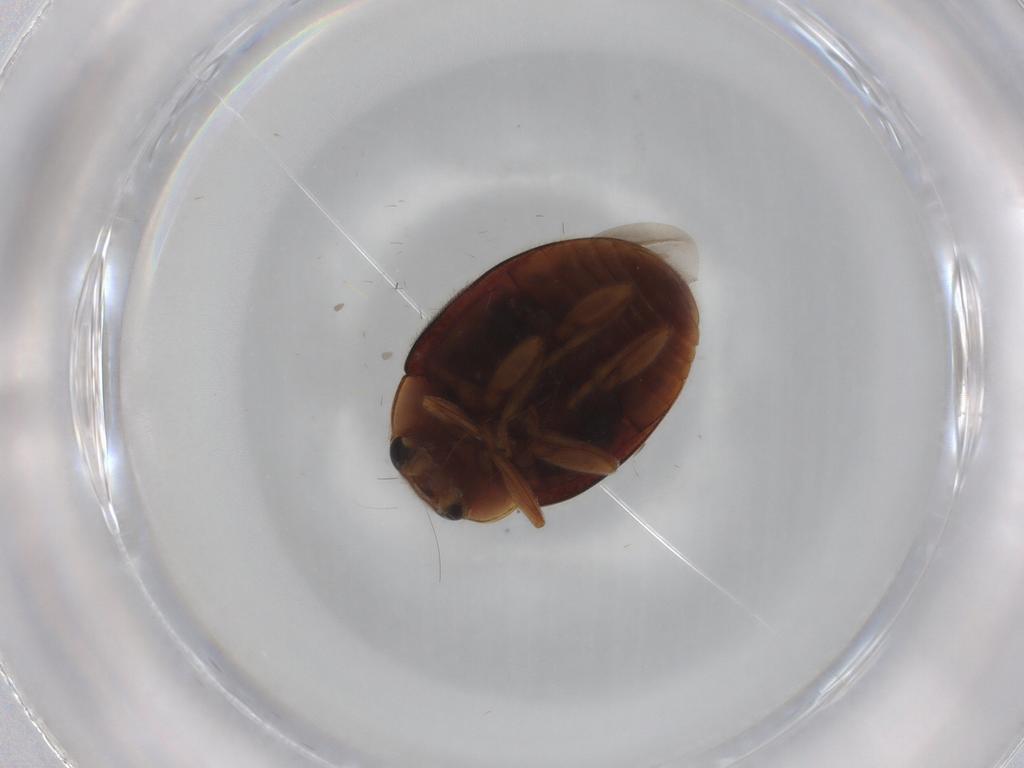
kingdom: Animalia
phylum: Arthropoda
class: Insecta
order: Coleoptera
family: Coccinellidae
